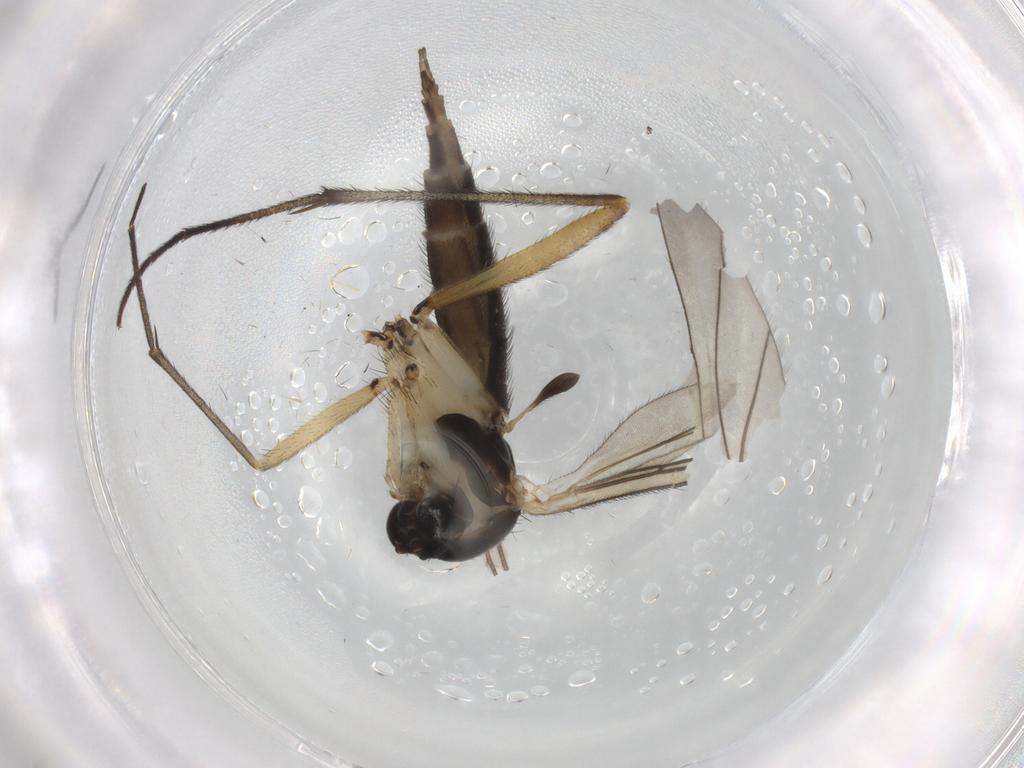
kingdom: Animalia
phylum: Arthropoda
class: Insecta
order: Diptera
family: Sciaridae
